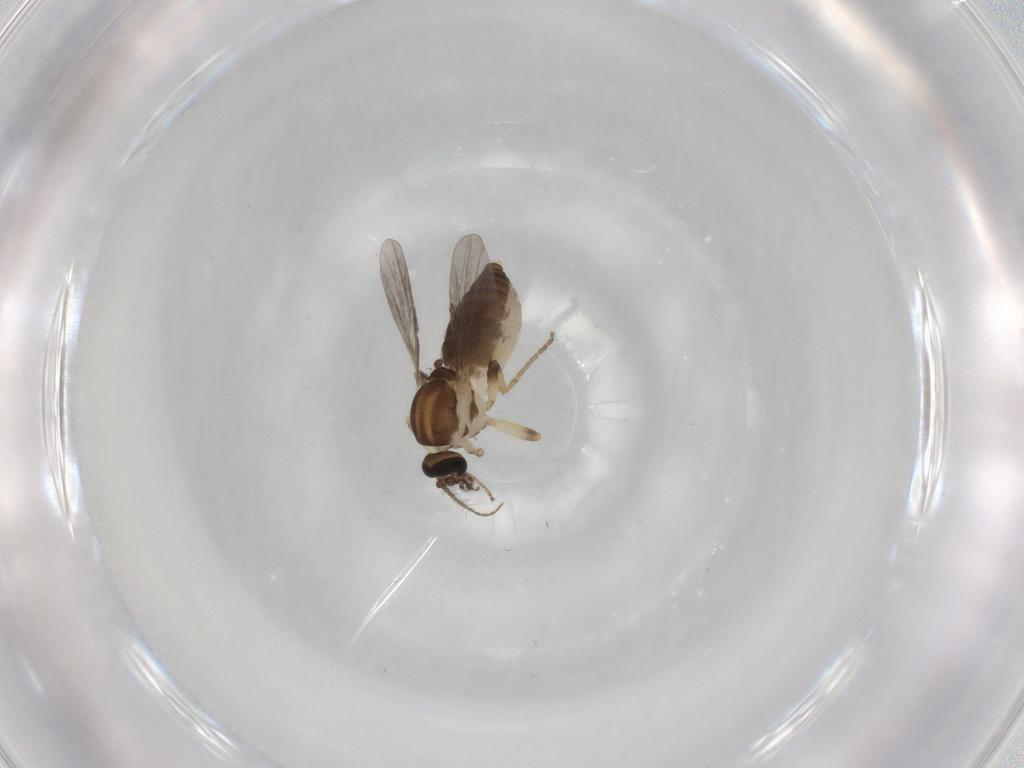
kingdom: Animalia
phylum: Arthropoda
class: Insecta
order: Diptera
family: Ceratopogonidae
